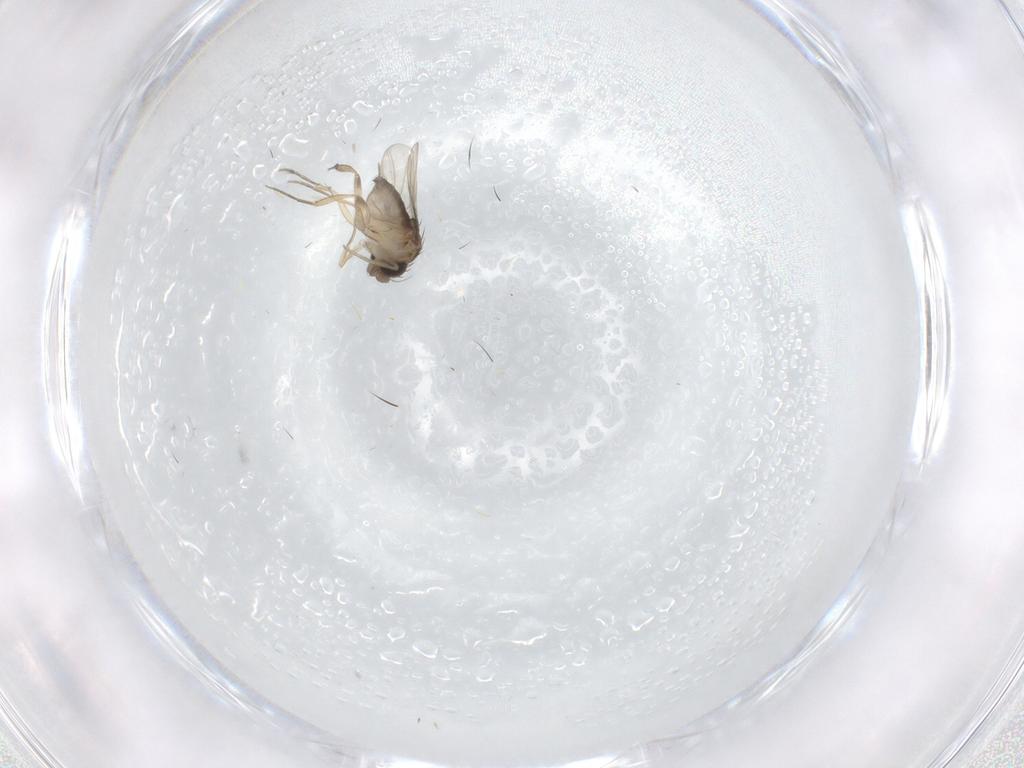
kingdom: Animalia
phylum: Arthropoda
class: Insecta
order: Diptera
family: Phoridae
